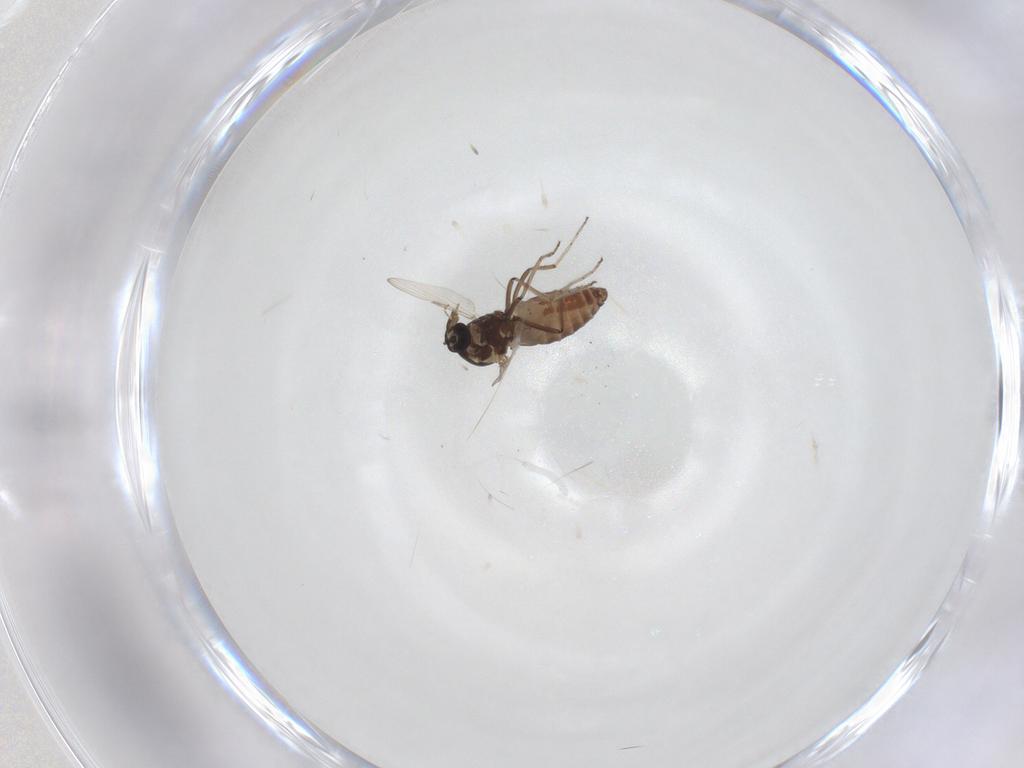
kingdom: Animalia
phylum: Arthropoda
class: Insecta
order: Diptera
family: Ceratopogonidae
